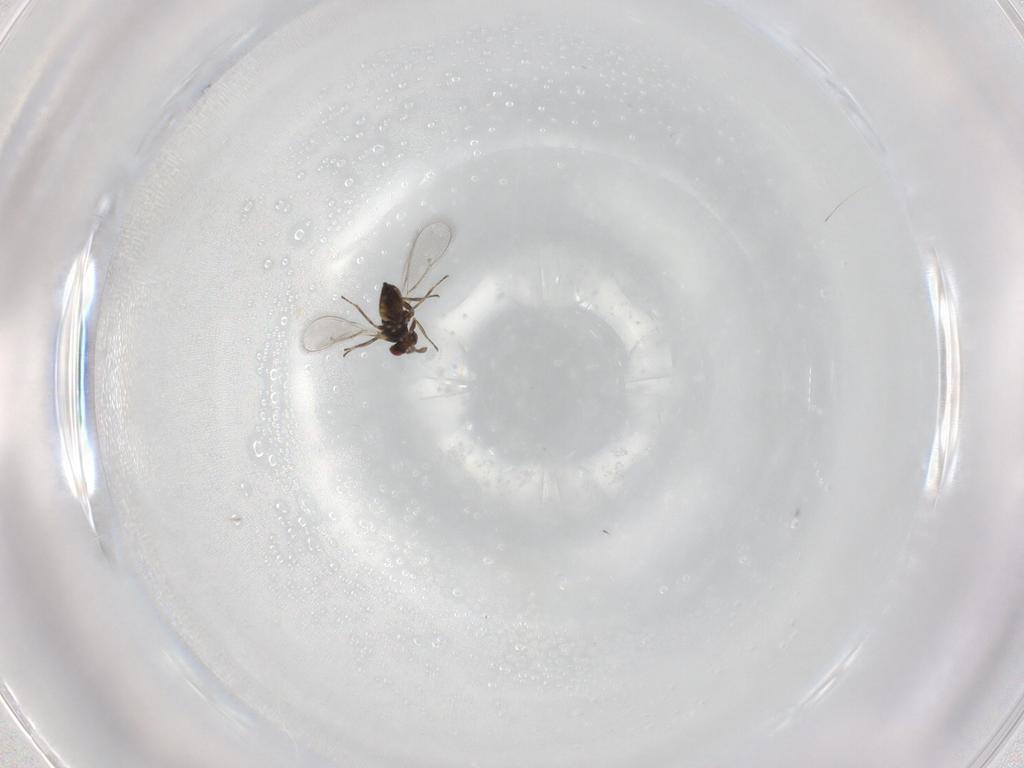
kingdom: Animalia
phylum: Arthropoda
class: Insecta
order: Hymenoptera
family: Eulophidae
